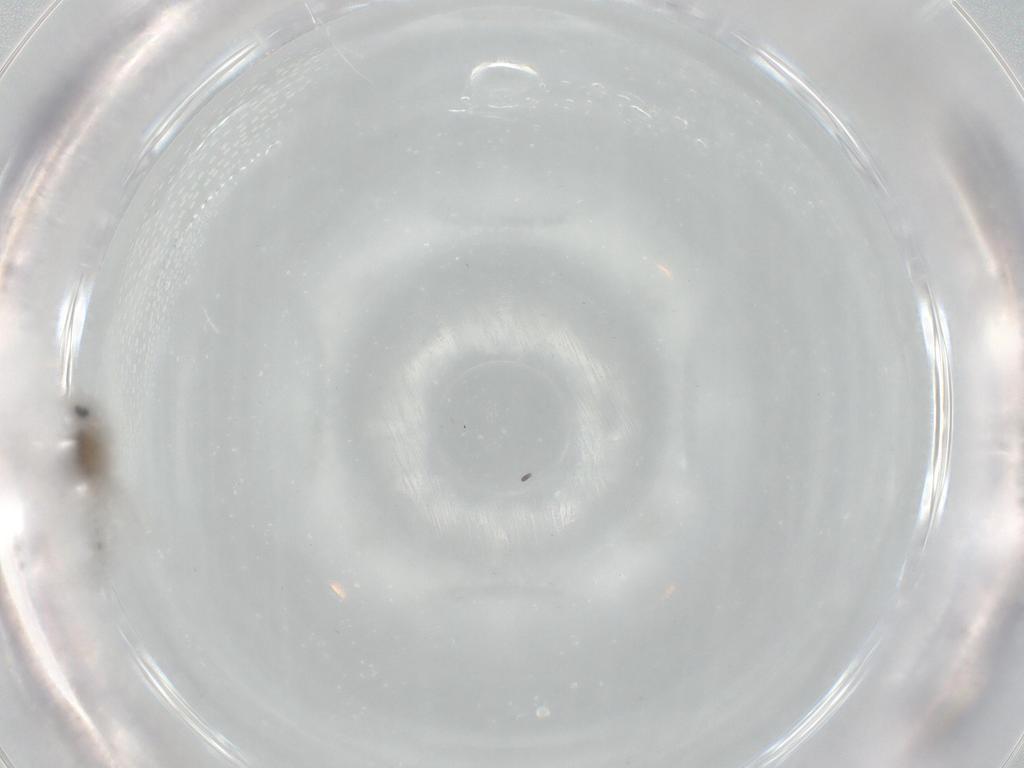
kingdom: Animalia
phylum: Arthropoda
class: Insecta
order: Diptera
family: Cecidomyiidae
